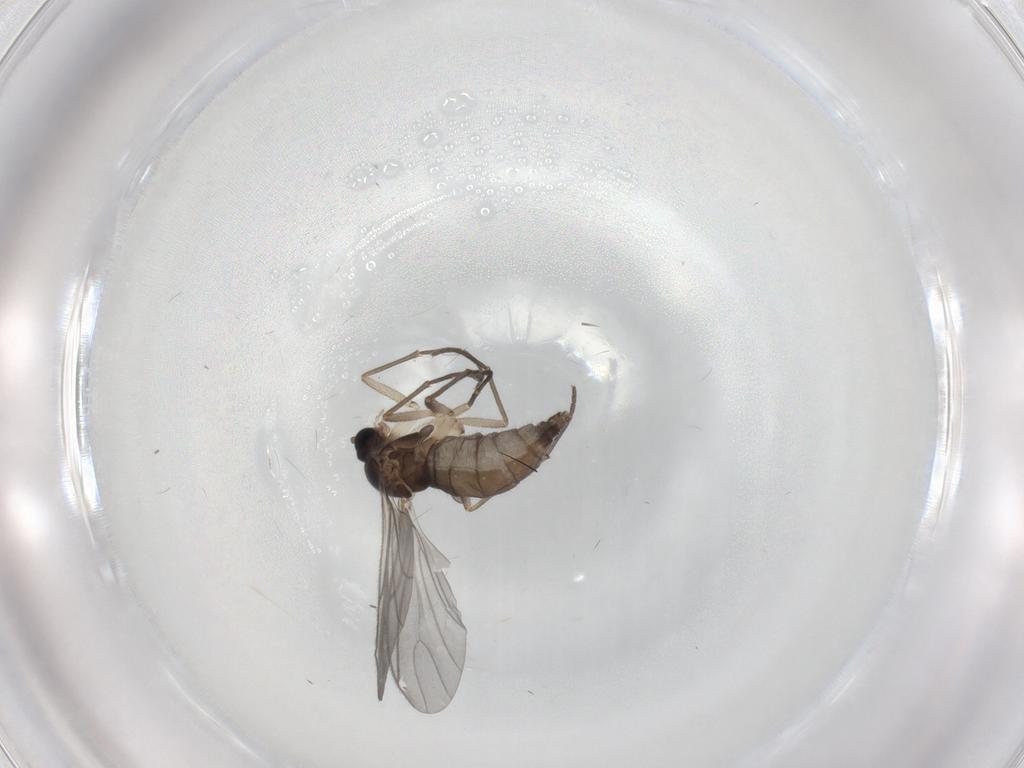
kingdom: Animalia
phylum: Arthropoda
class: Insecta
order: Diptera
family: Sciaridae
